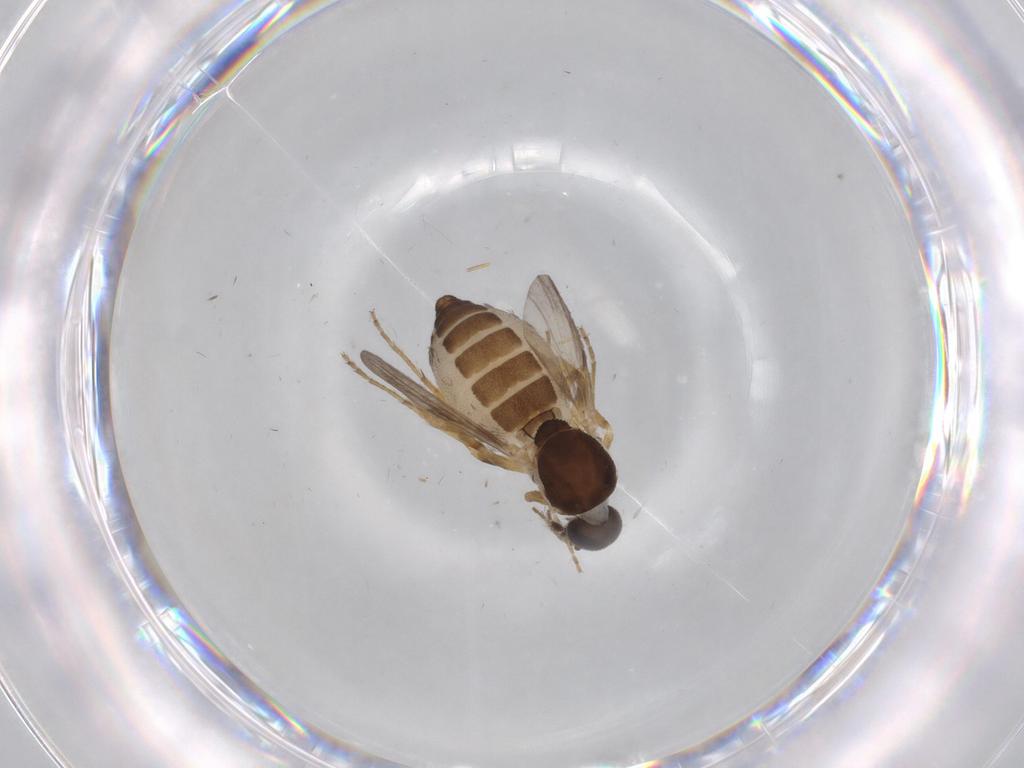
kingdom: Animalia
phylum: Arthropoda
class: Insecta
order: Diptera
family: Ceratopogonidae
